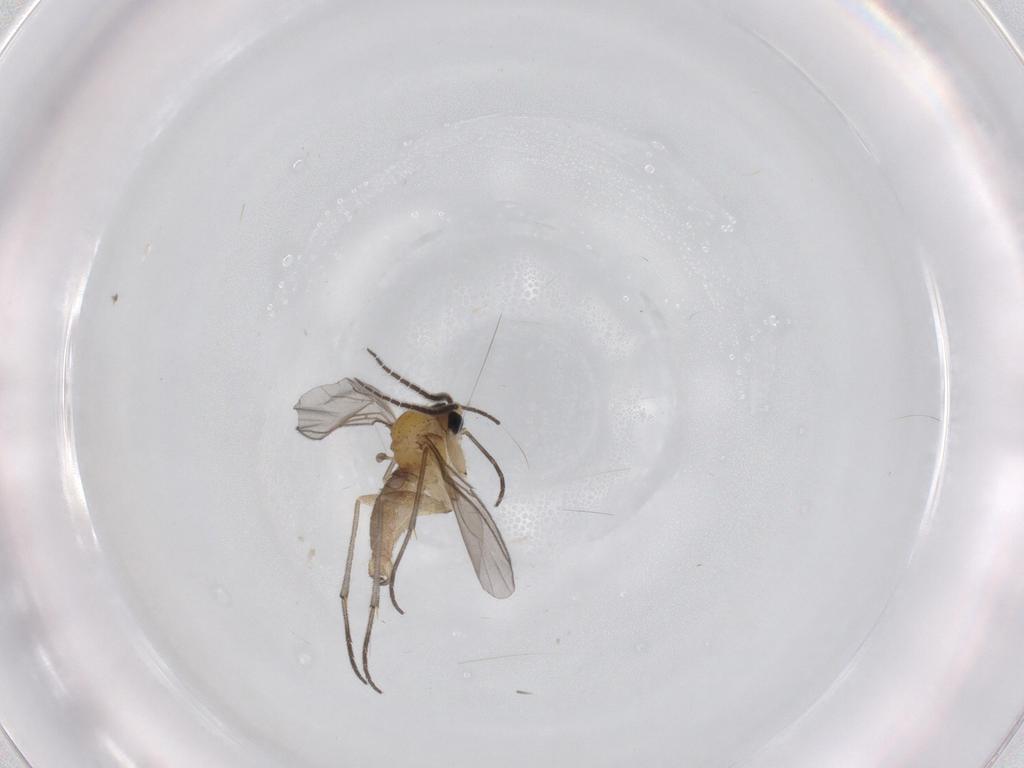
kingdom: Animalia
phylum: Arthropoda
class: Insecta
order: Diptera
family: Sciaridae
